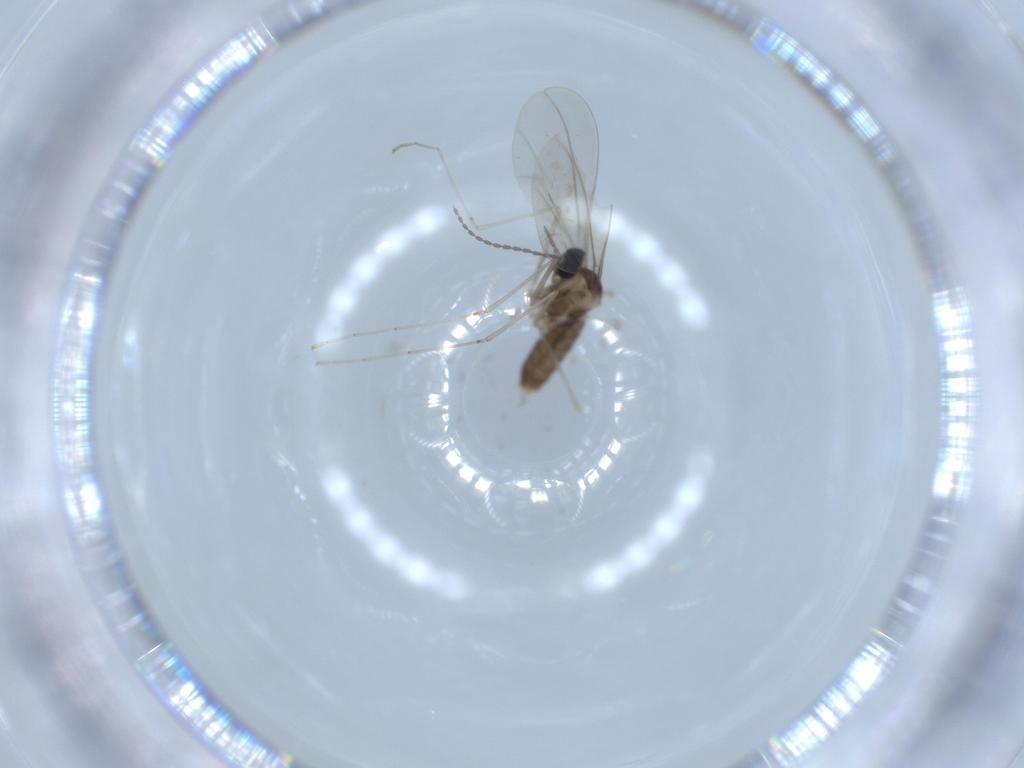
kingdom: Animalia
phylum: Arthropoda
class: Insecta
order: Diptera
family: Cecidomyiidae
